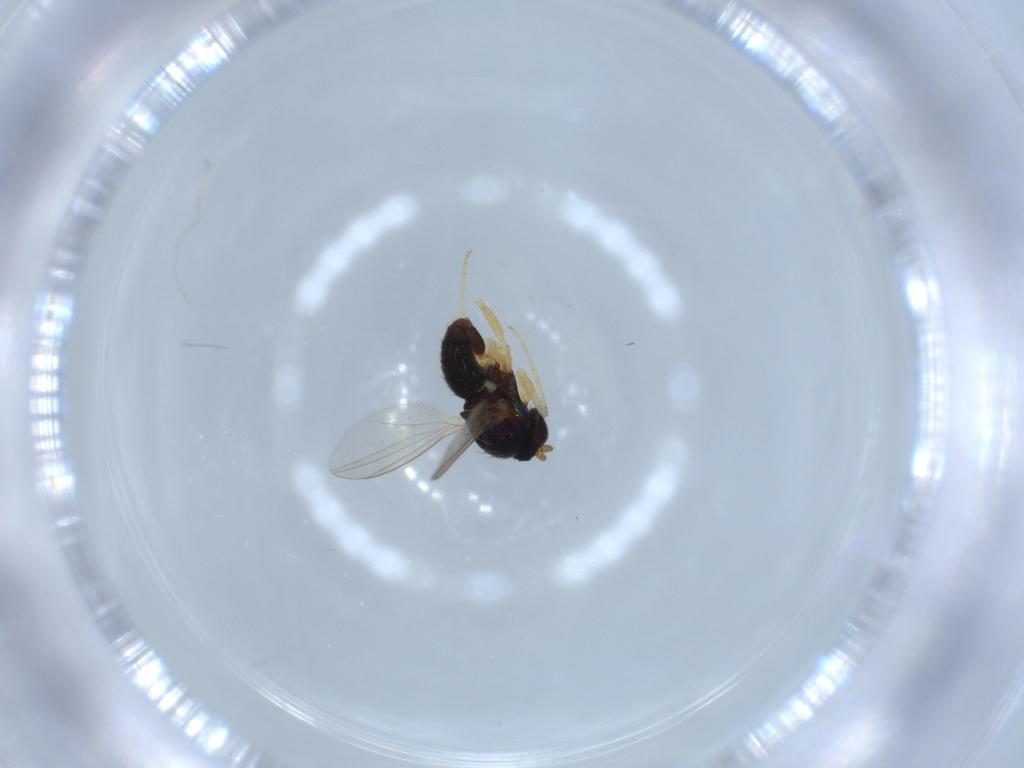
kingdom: Animalia
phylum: Arthropoda
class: Insecta
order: Diptera
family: Dolichopodidae
